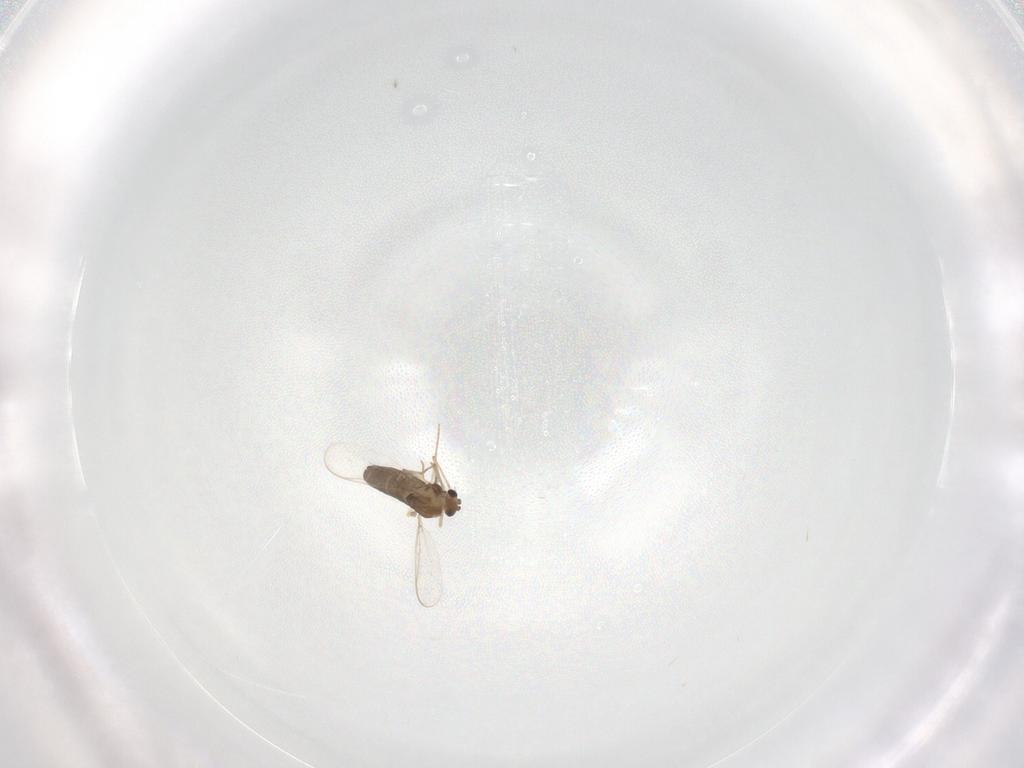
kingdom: Animalia
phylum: Arthropoda
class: Insecta
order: Diptera
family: Chironomidae
